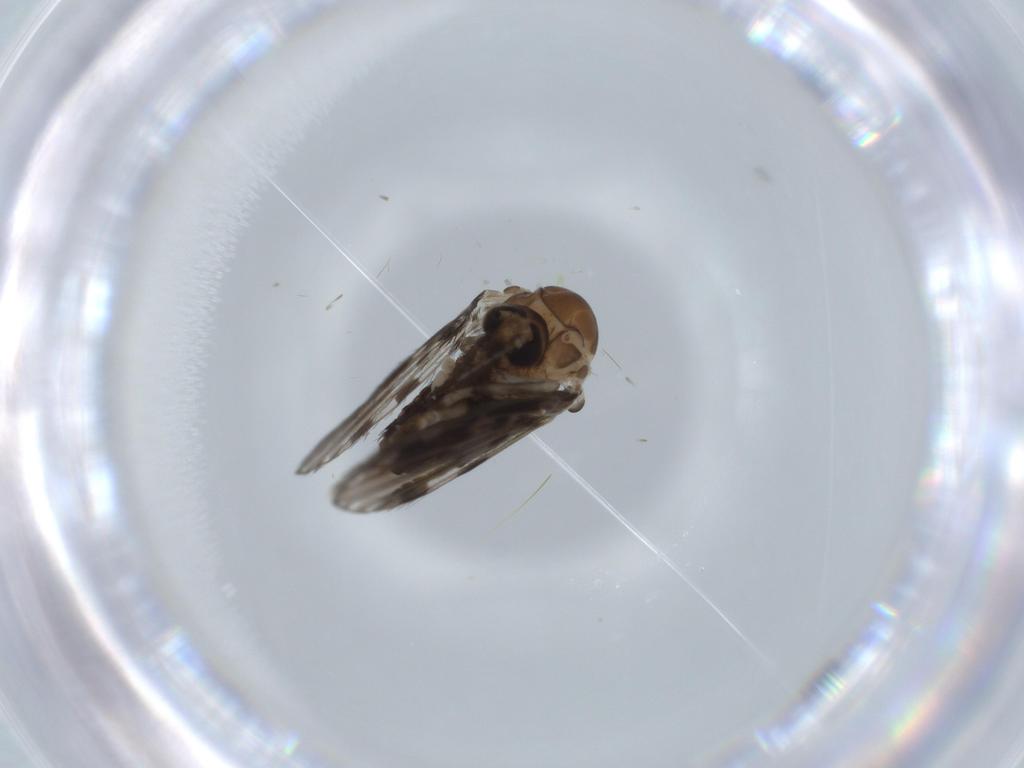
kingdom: Animalia
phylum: Arthropoda
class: Insecta
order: Diptera
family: Psychodidae
